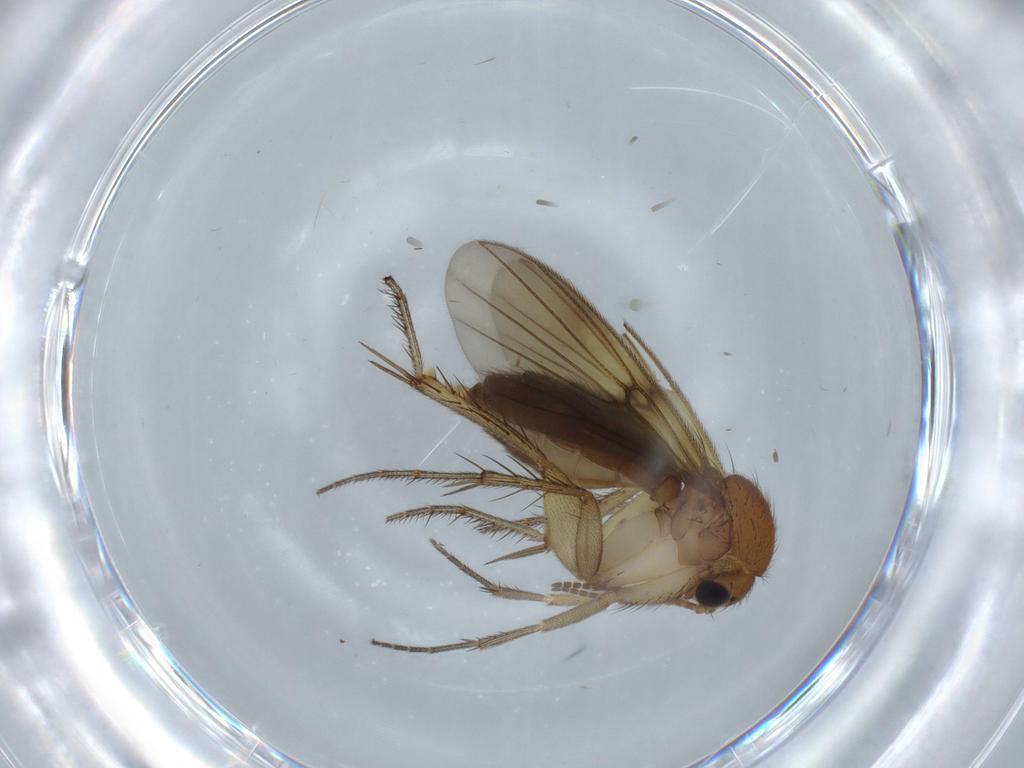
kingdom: Animalia
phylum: Arthropoda
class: Insecta
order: Diptera
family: Cecidomyiidae
